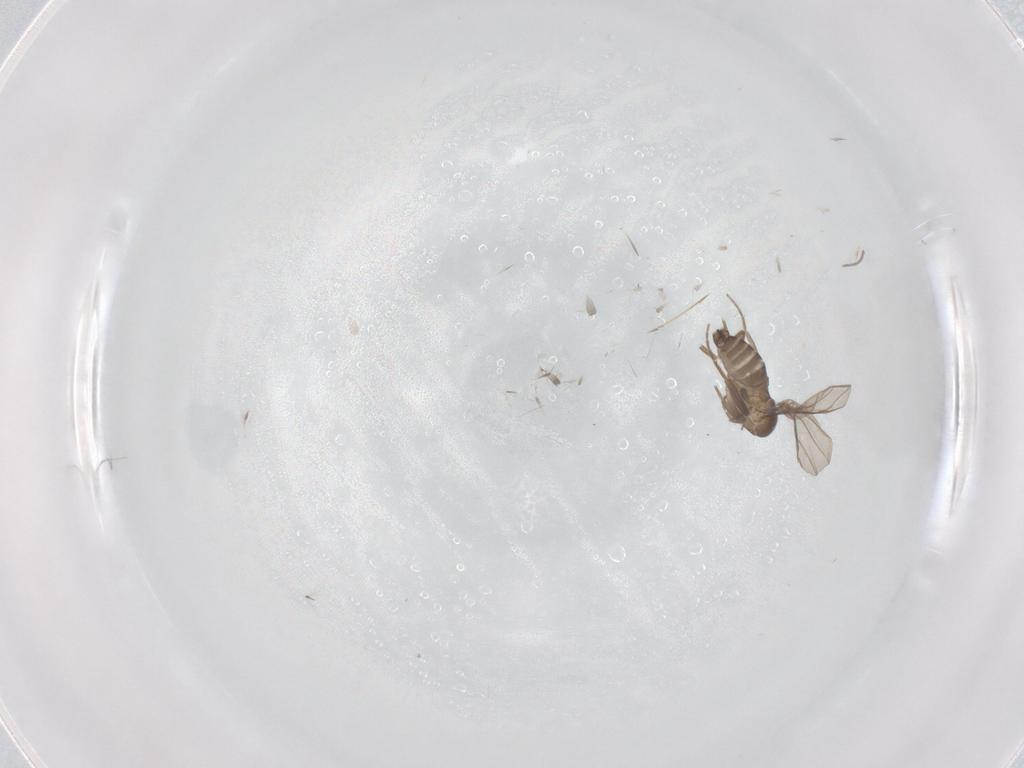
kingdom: Animalia
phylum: Arthropoda
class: Insecta
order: Diptera
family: Cecidomyiidae
